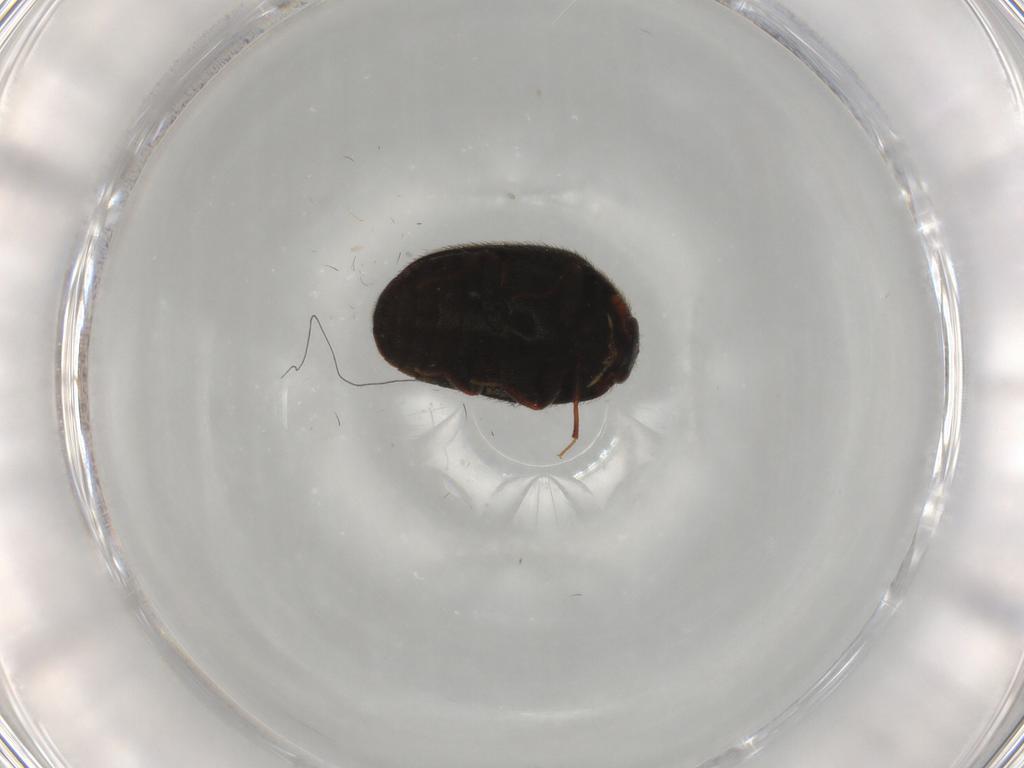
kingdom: Animalia
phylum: Arthropoda
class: Insecta
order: Coleoptera
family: Dermestidae
